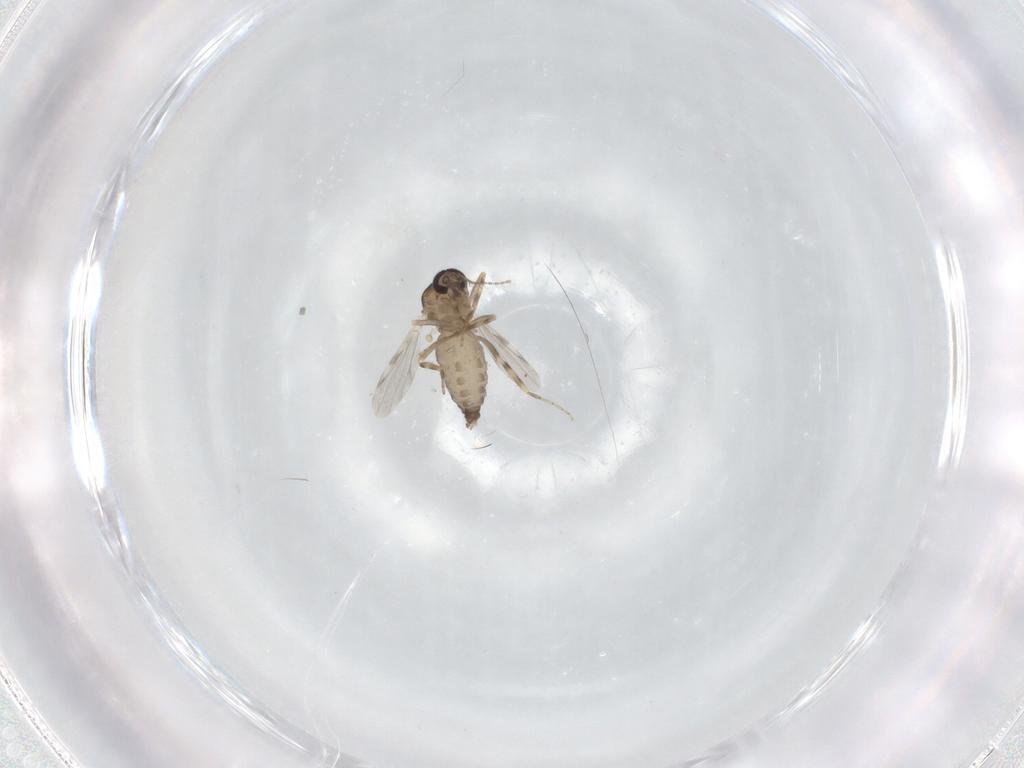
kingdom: Animalia
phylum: Arthropoda
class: Insecta
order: Diptera
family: Ceratopogonidae
